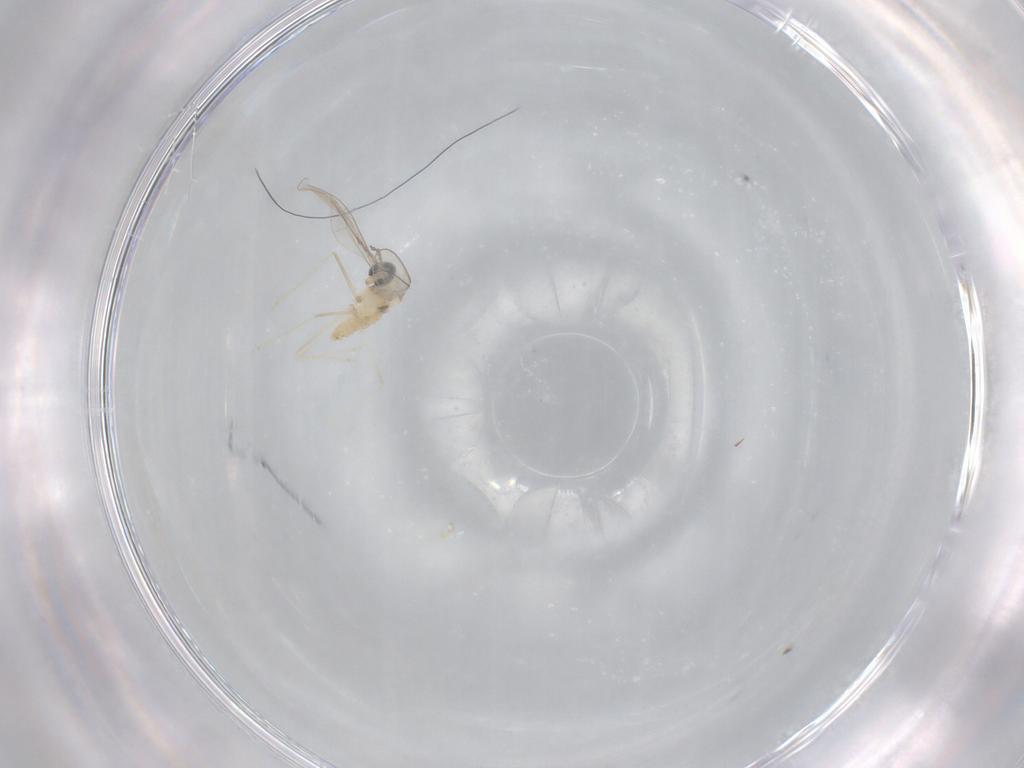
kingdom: Animalia
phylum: Arthropoda
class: Insecta
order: Diptera
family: Cecidomyiidae
